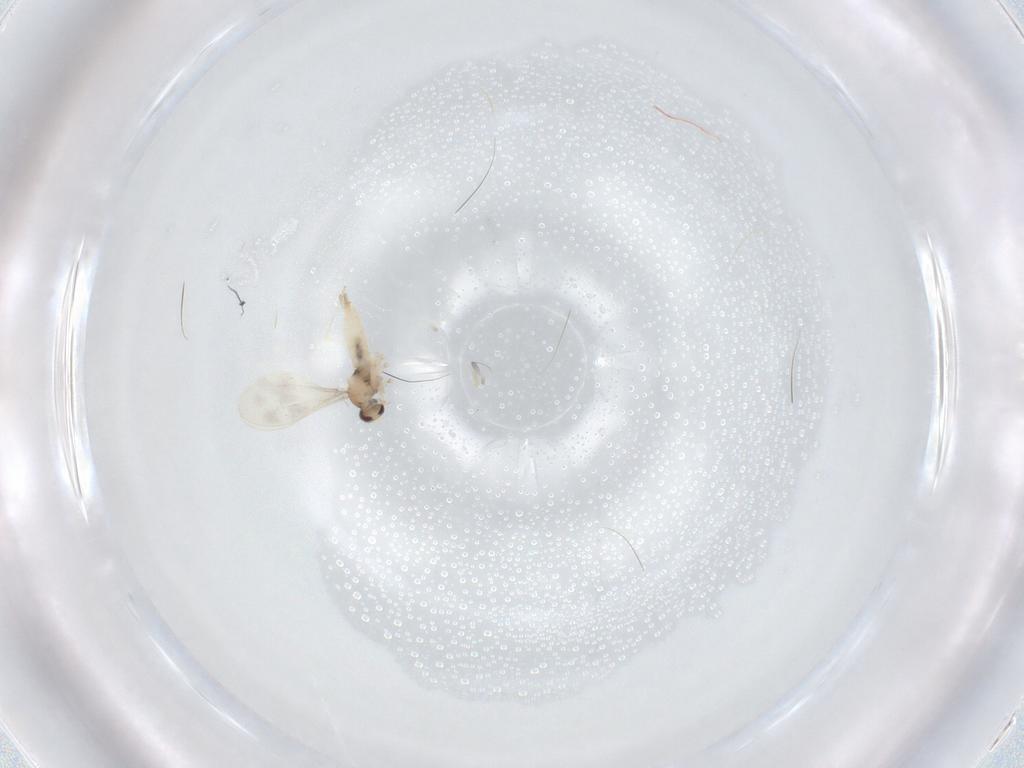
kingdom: Animalia
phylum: Arthropoda
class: Insecta
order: Diptera
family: Cecidomyiidae
